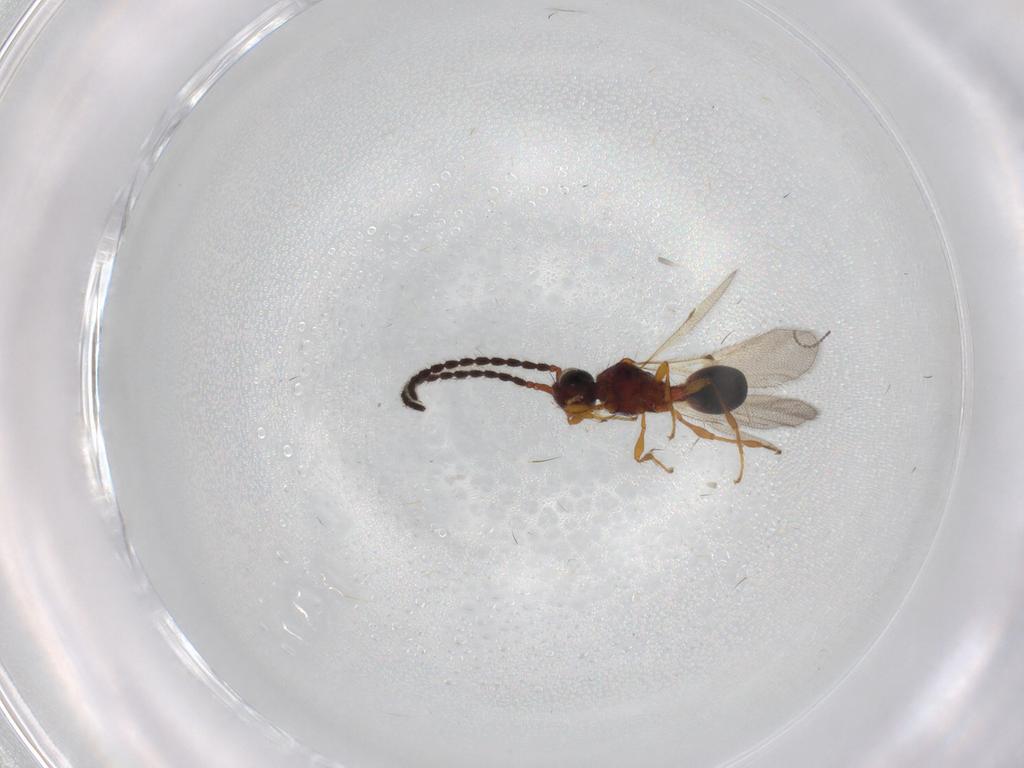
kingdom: Animalia
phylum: Arthropoda
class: Insecta
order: Hymenoptera
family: Diapriidae
